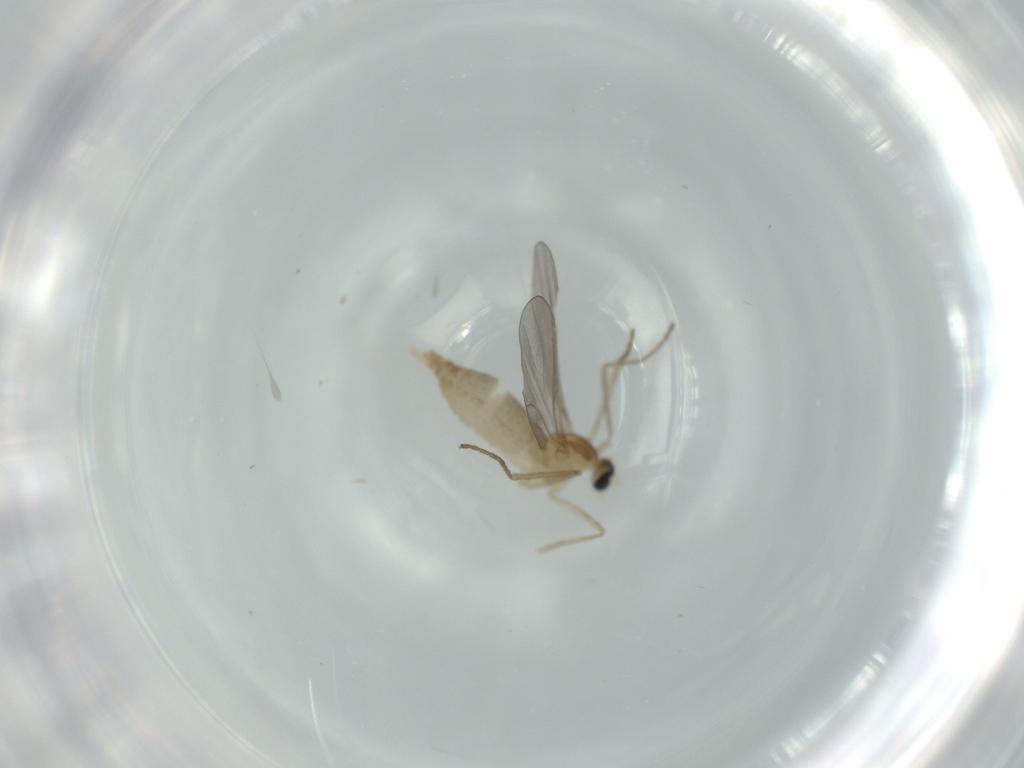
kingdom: Animalia
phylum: Arthropoda
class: Insecta
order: Diptera
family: Cecidomyiidae
